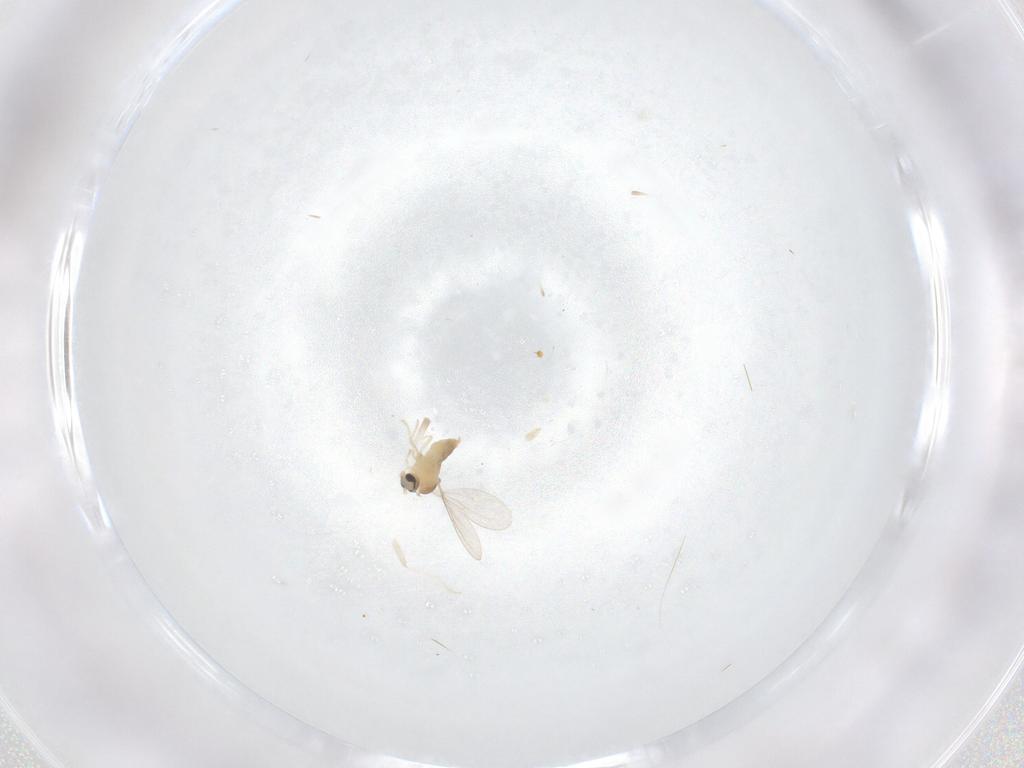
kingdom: Animalia
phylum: Arthropoda
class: Insecta
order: Diptera
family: Cecidomyiidae
